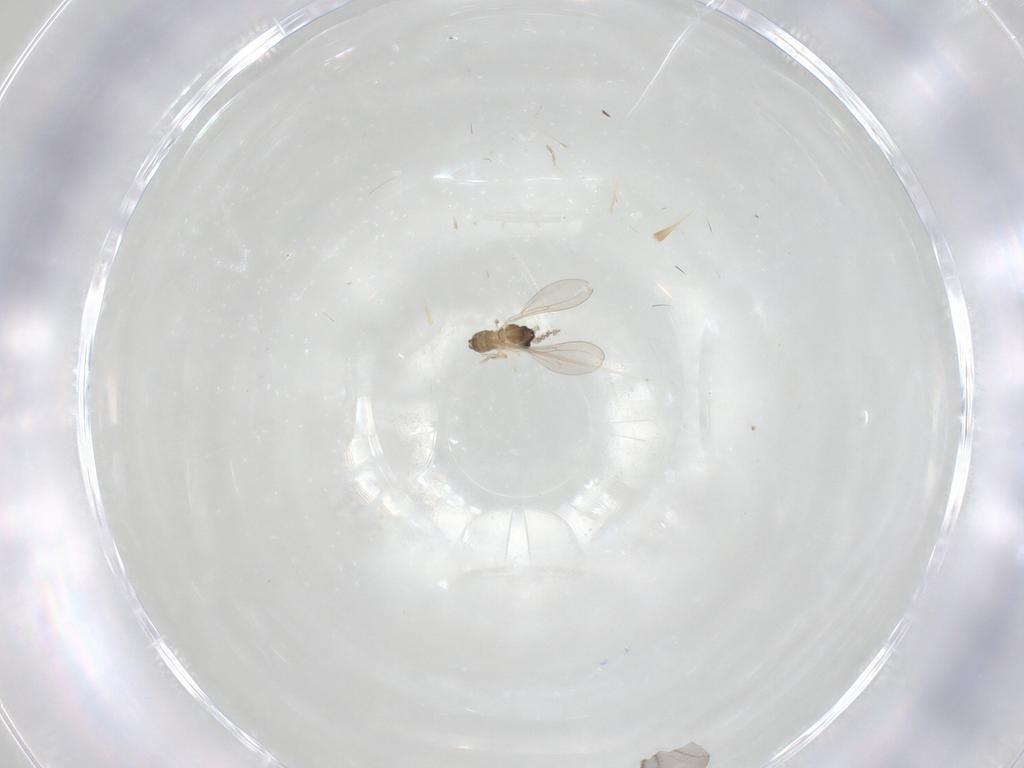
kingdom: Animalia
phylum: Arthropoda
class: Insecta
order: Diptera
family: Cecidomyiidae
